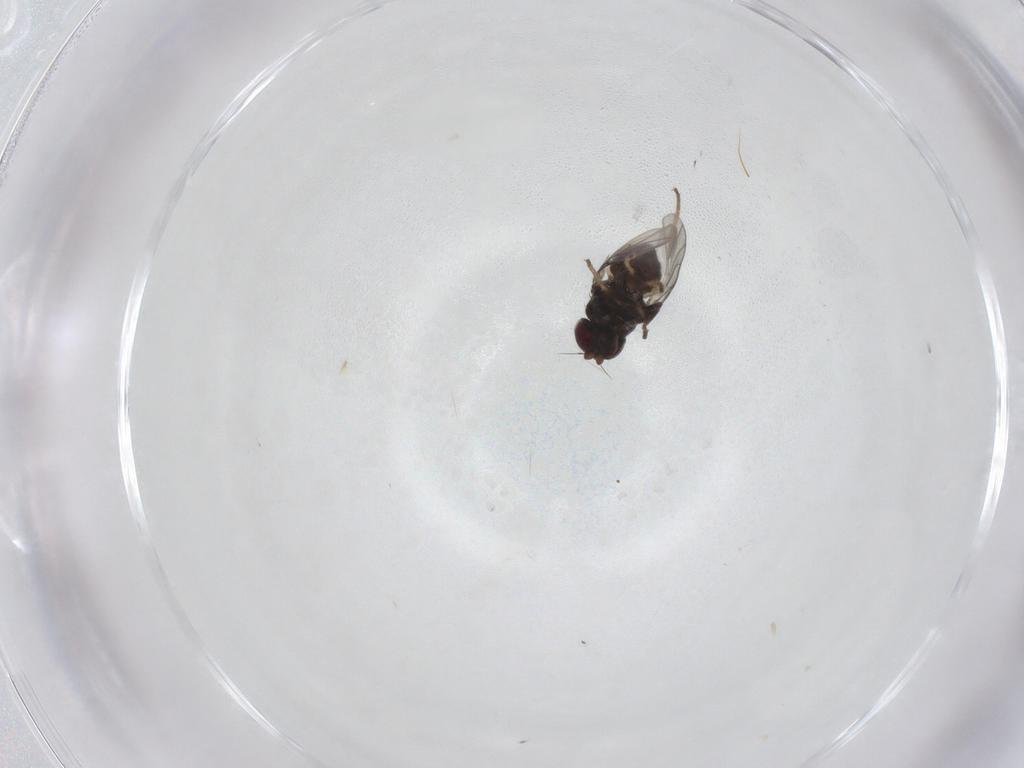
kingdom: Animalia
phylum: Arthropoda
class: Insecta
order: Diptera
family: Chloropidae
